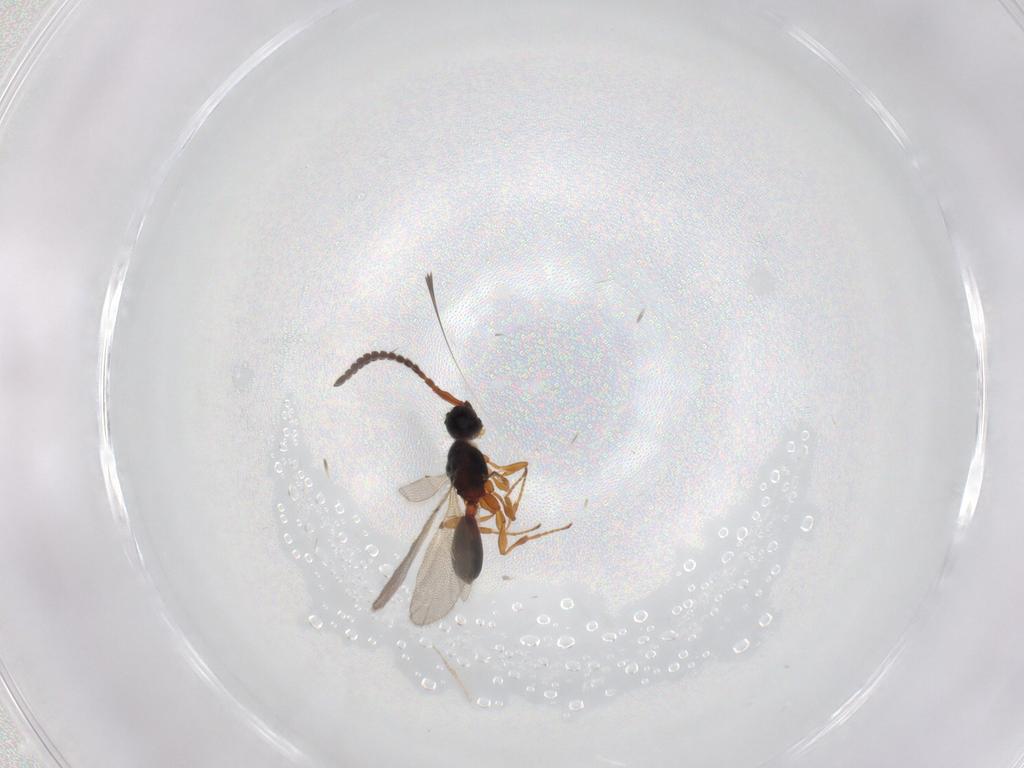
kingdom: Animalia
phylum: Arthropoda
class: Insecta
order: Hymenoptera
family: Diapriidae
